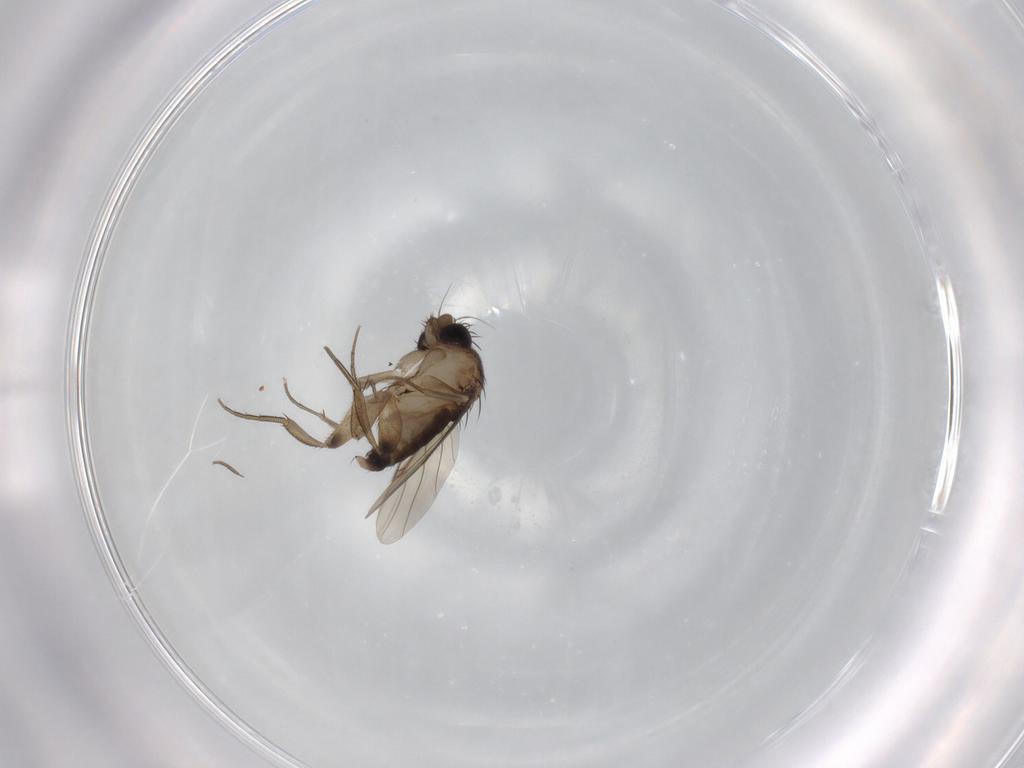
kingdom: Animalia
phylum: Arthropoda
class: Insecta
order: Diptera
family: Phoridae
